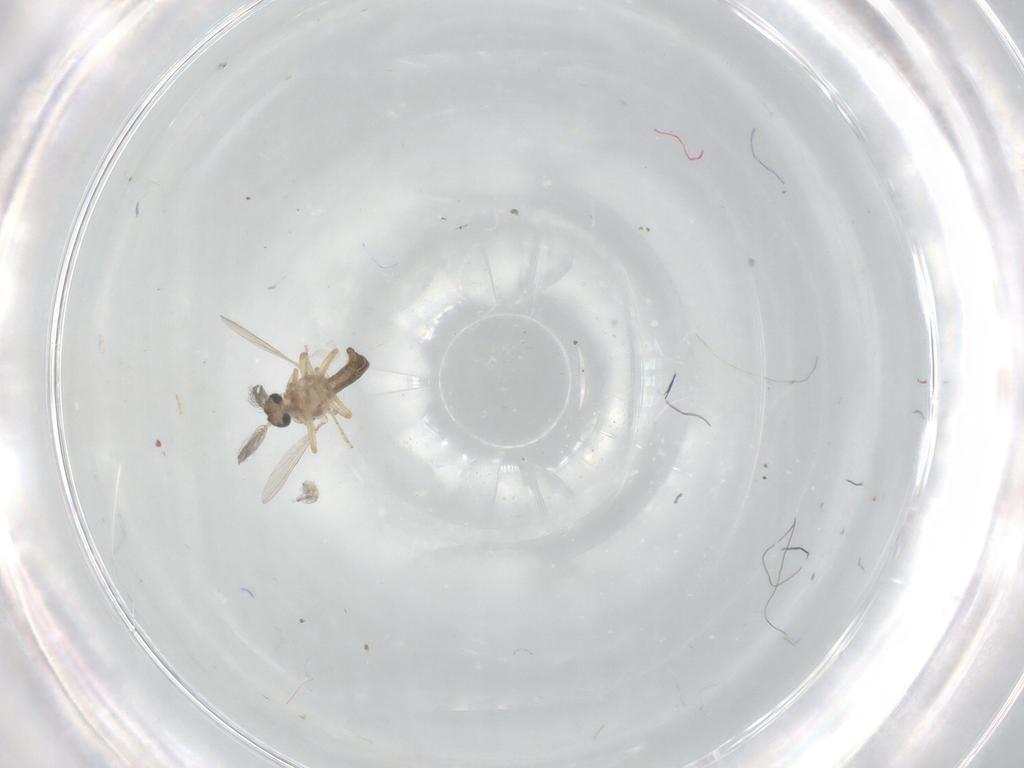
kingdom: Animalia
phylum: Arthropoda
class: Insecta
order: Diptera
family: Ceratopogonidae
